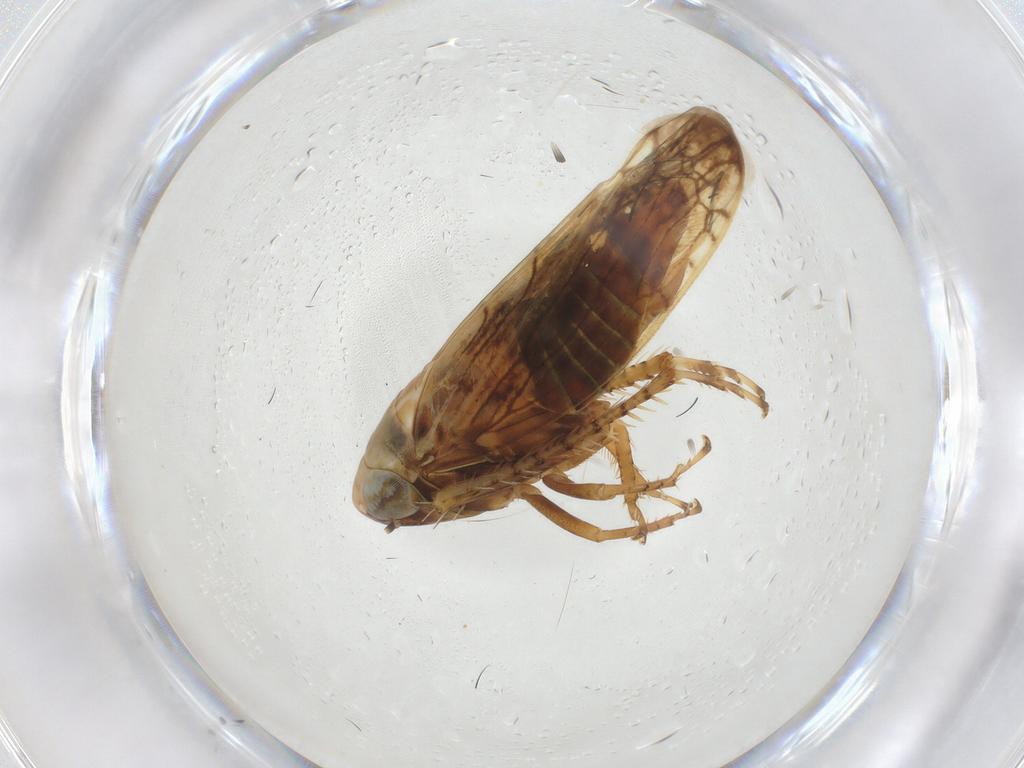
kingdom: Animalia
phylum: Arthropoda
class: Insecta
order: Hemiptera
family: Cicadellidae
